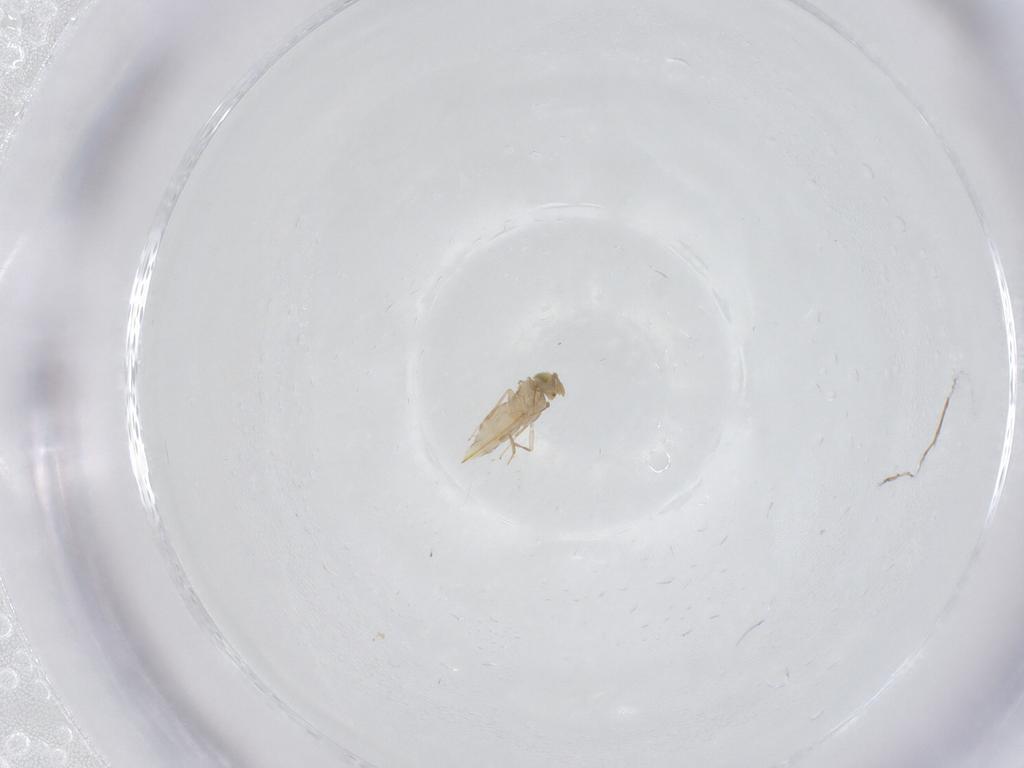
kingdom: Animalia
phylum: Arthropoda
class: Insecta
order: Hymenoptera
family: Aphelinidae
